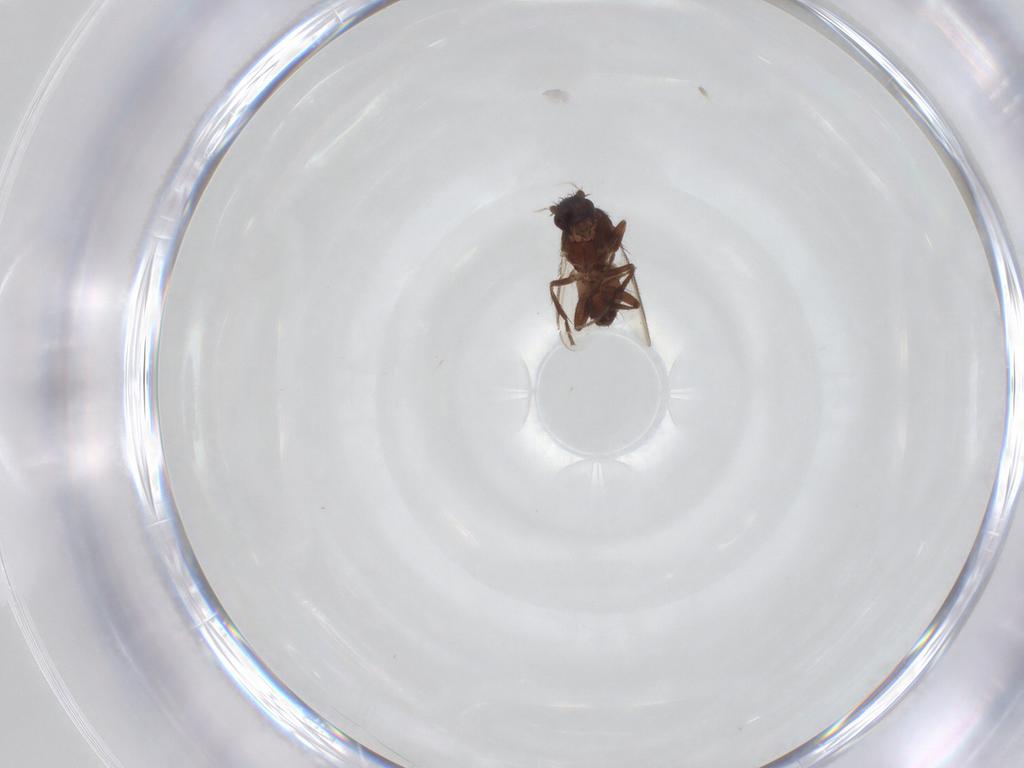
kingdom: Animalia
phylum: Arthropoda
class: Insecta
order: Diptera
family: Sphaeroceridae
